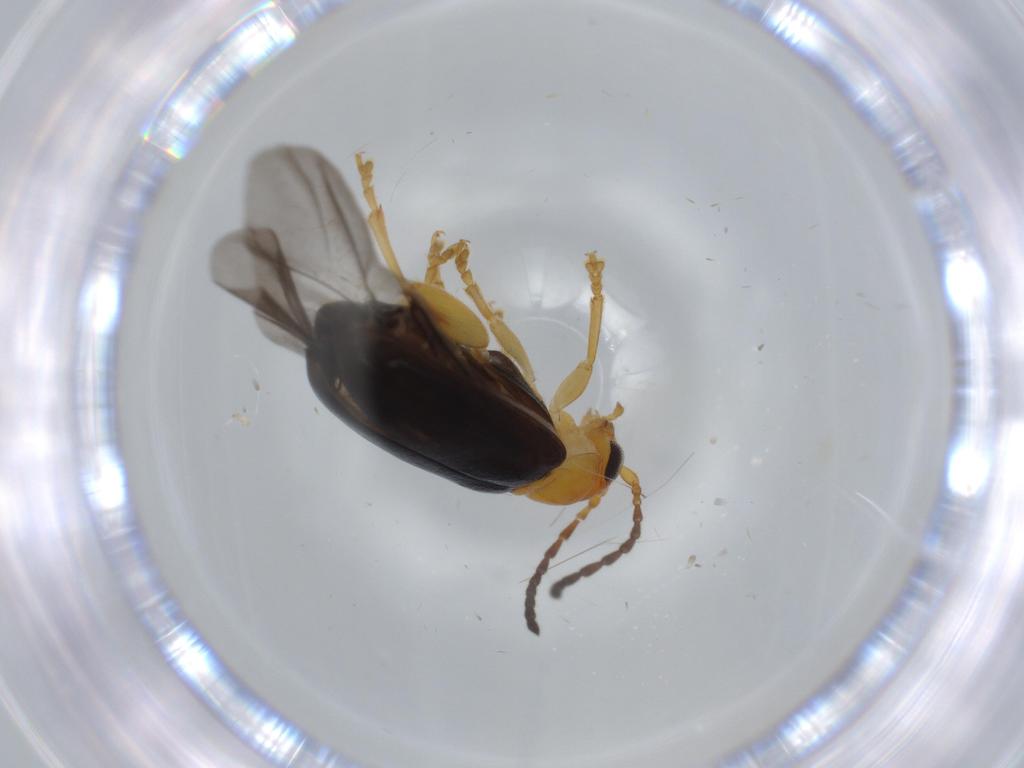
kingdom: Animalia
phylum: Arthropoda
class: Insecta
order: Coleoptera
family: Chrysomelidae
